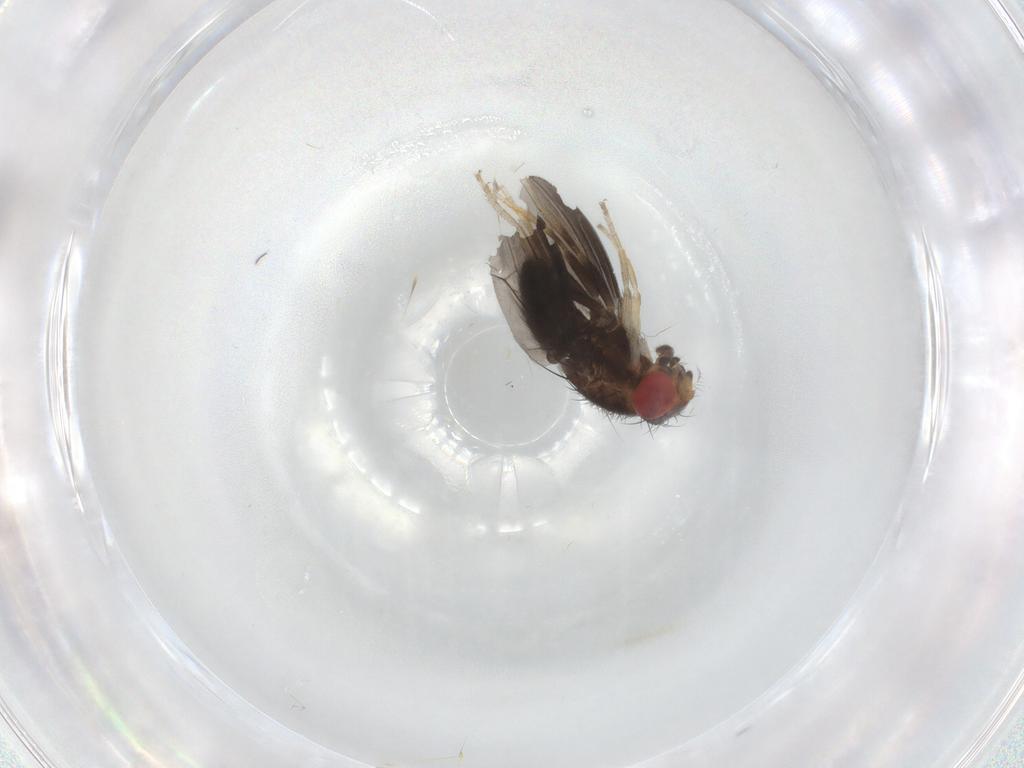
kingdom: Animalia
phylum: Arthropoda
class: Insecta
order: Diptera
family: Drosophilidae
